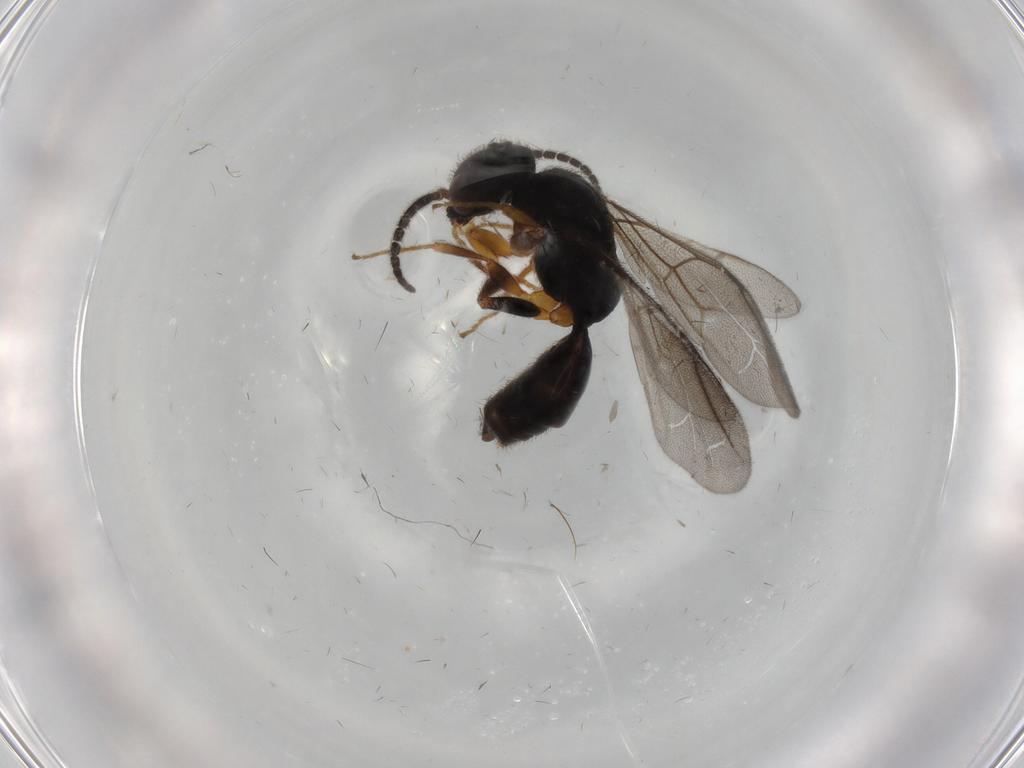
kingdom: Animalia
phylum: Arthropoda
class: Insecta
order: Hymenoptera
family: Bethylidae
